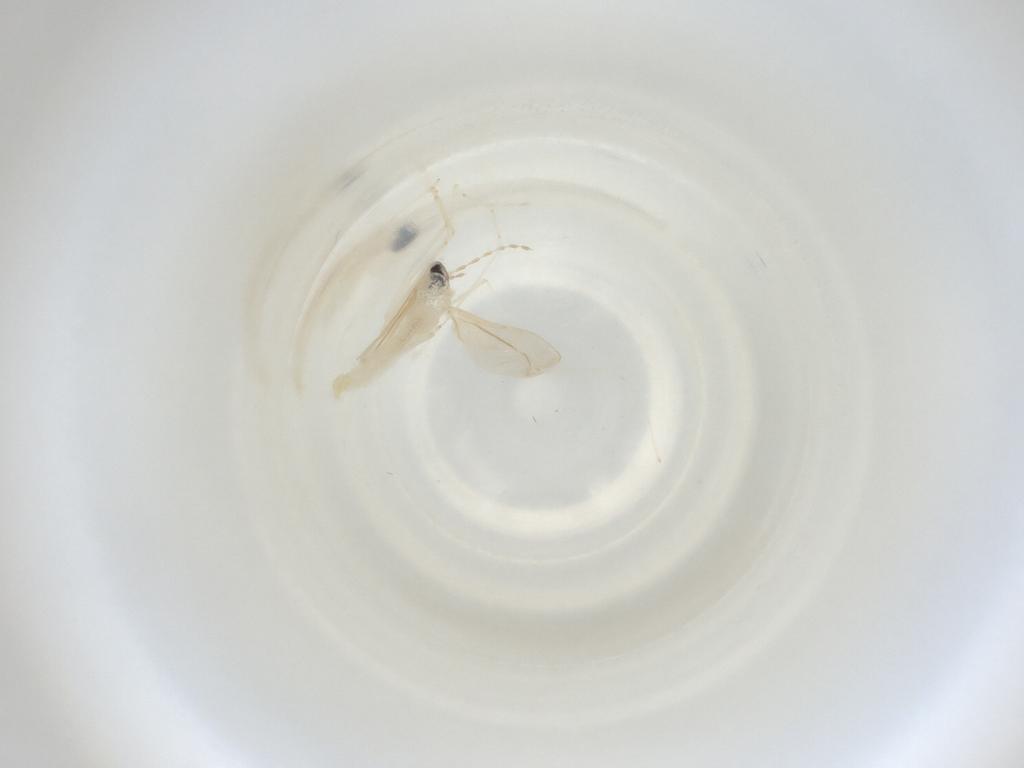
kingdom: Animalia
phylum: Arthropoda
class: Insecta
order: Diptera
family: Cecidomyiidae
